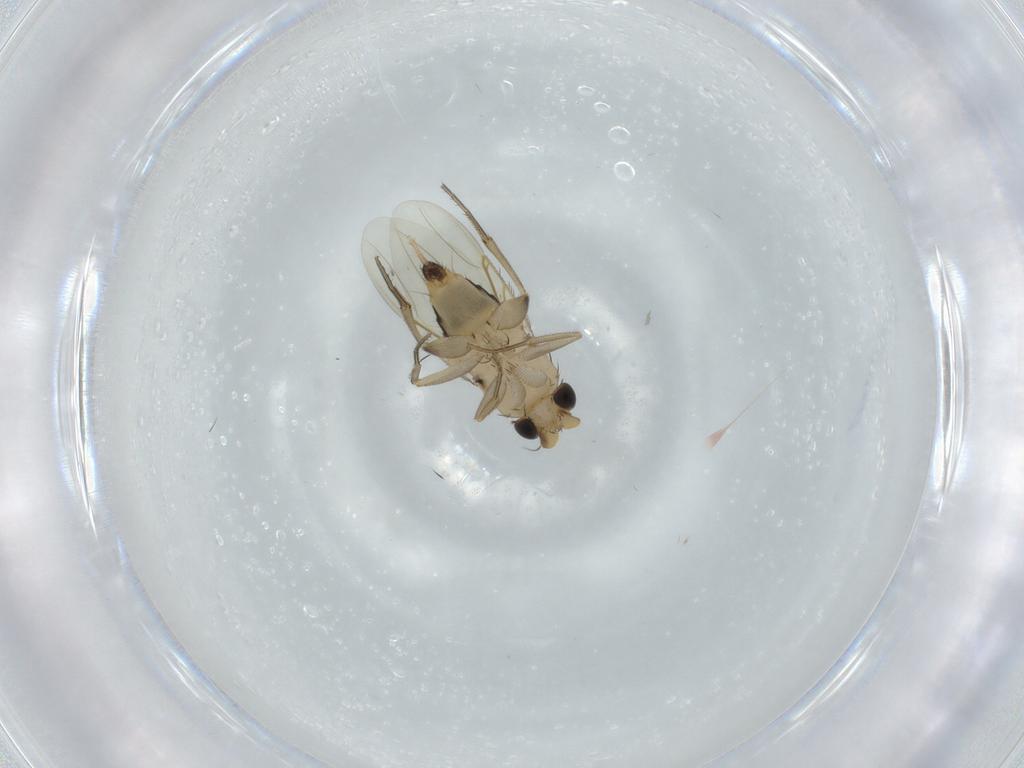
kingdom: Animalia
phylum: Arthropoda
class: Insecta
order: Diptera
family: Phoridae
